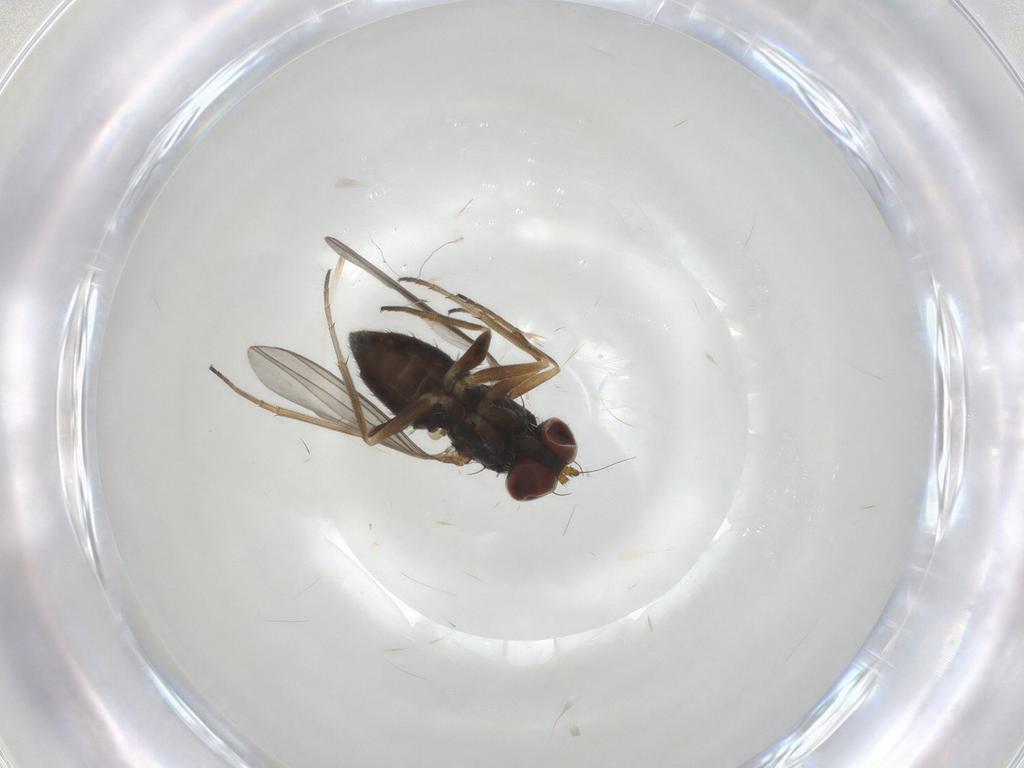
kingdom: Animalia
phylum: Arthropoda
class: Insecta
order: Diptera
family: Dolichopodidae
